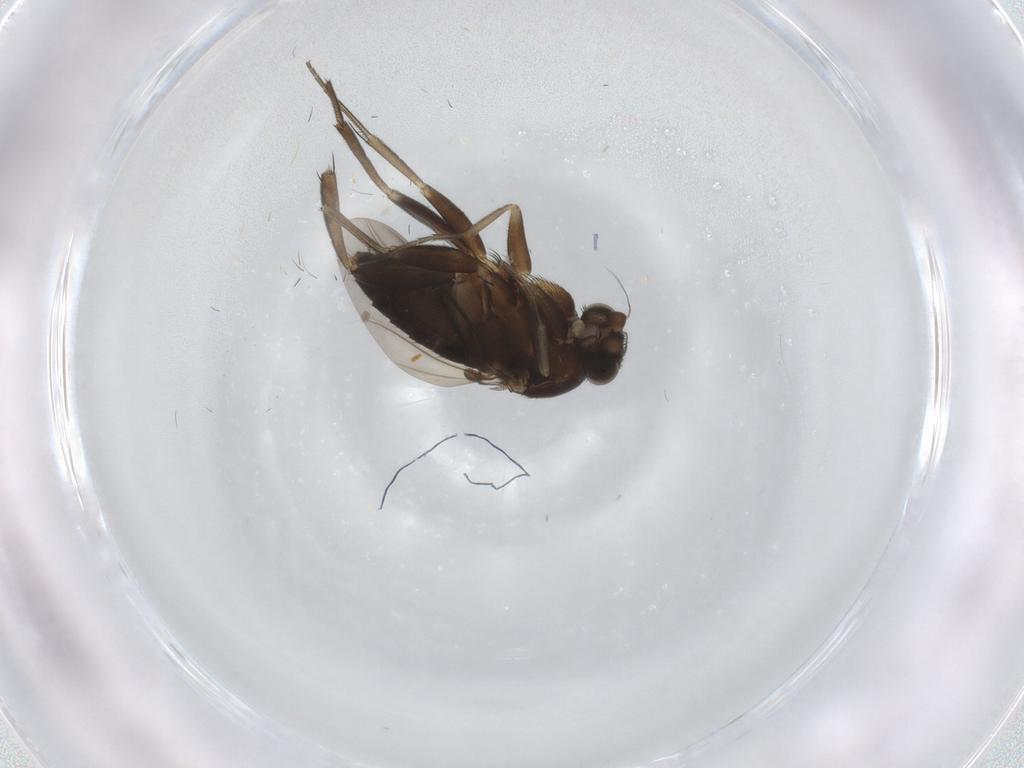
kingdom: Animalia
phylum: Arthropoda
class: Insecta
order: Diptera
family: Phoridae
